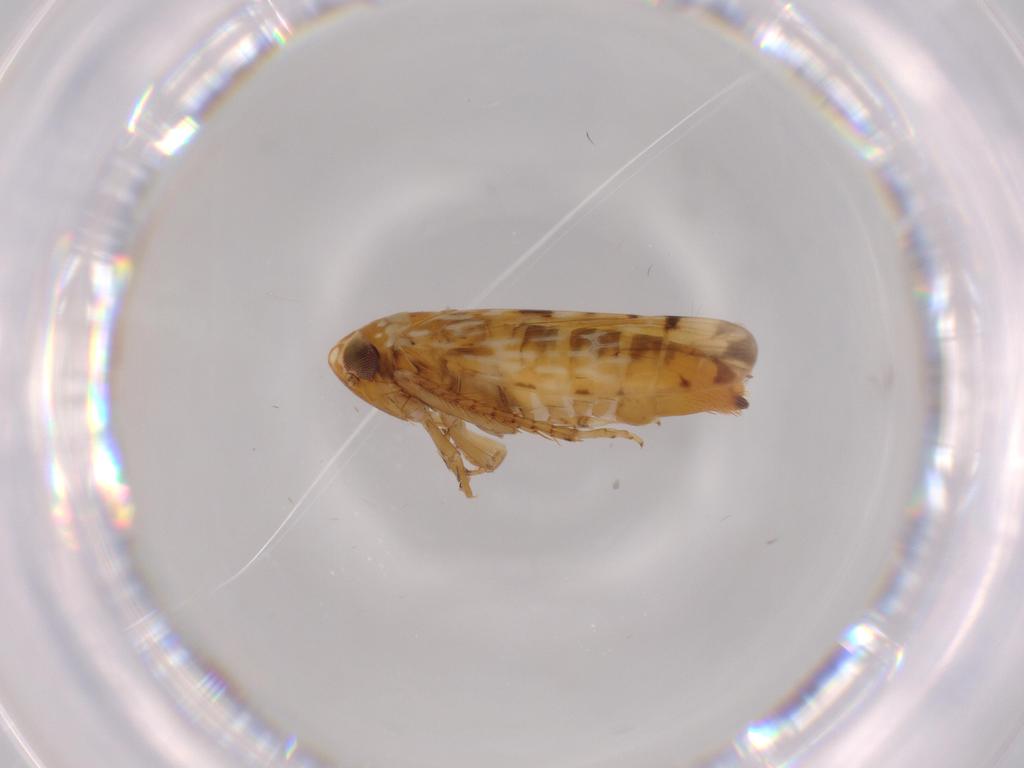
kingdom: Animalia
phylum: Arthropoda
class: Insecta
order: Hemiptera
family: Cicadellidae
